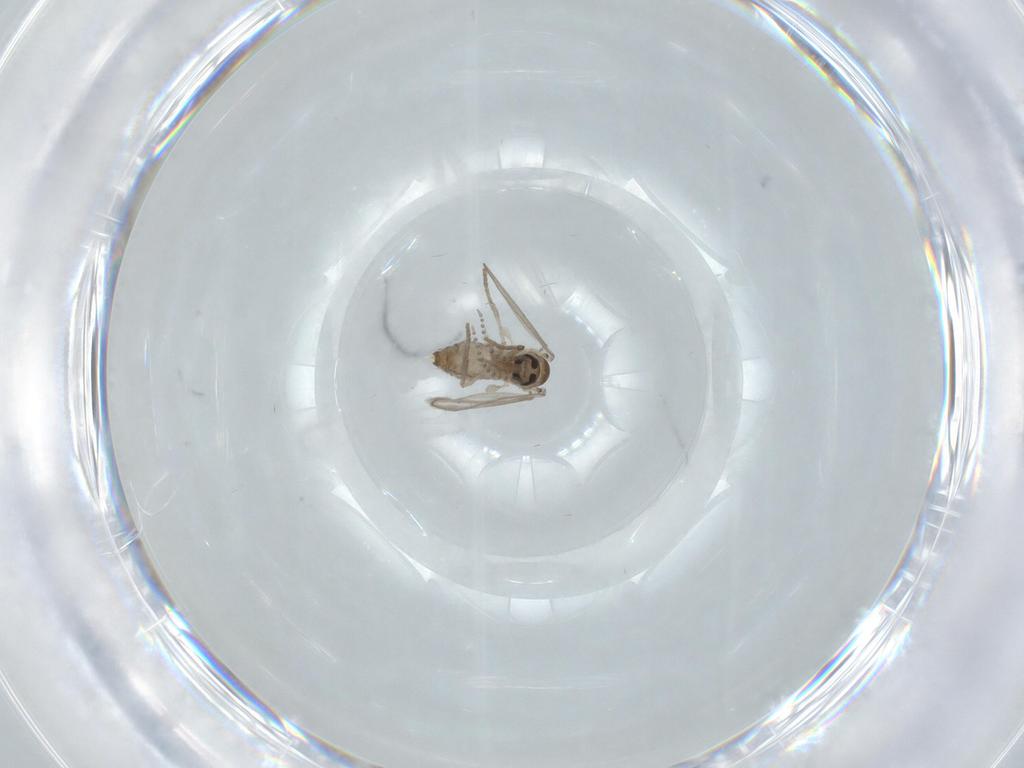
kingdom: Animalia
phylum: Arthropoda
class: Insecta
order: Diptera
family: Psychodidae
